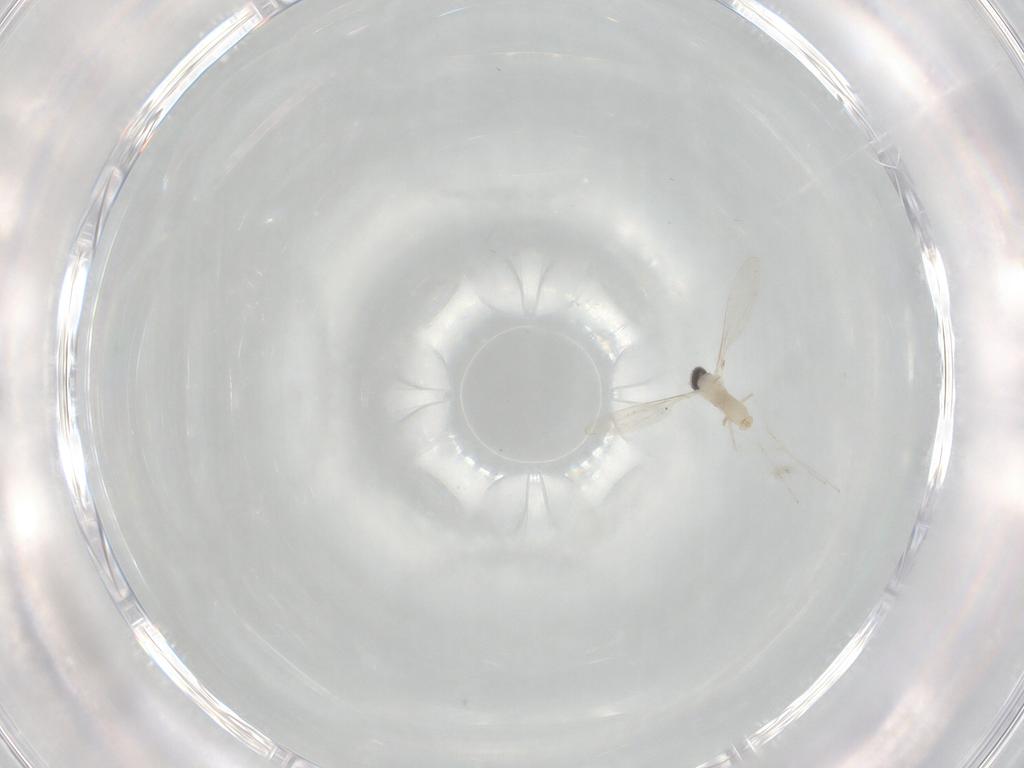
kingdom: Animalia
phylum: Arthropoda
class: Insecta
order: Diptera
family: Cecidomyiidae
